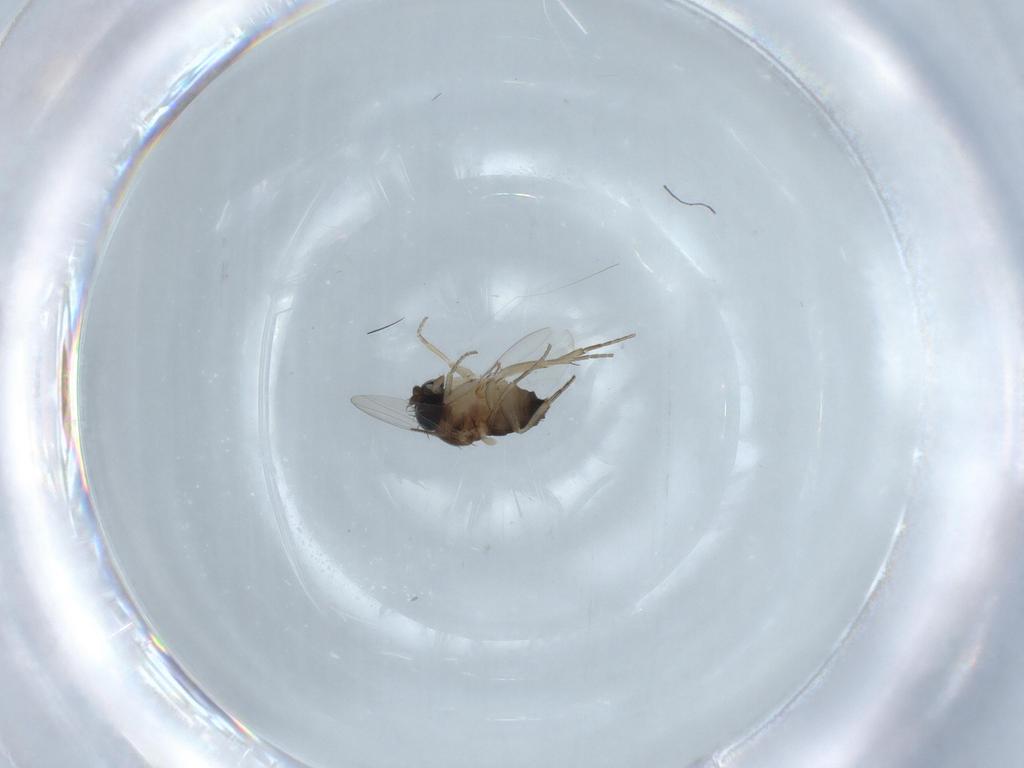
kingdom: Animalia
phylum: Arthropoda
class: Insecta
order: Diptera
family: Phoridae
